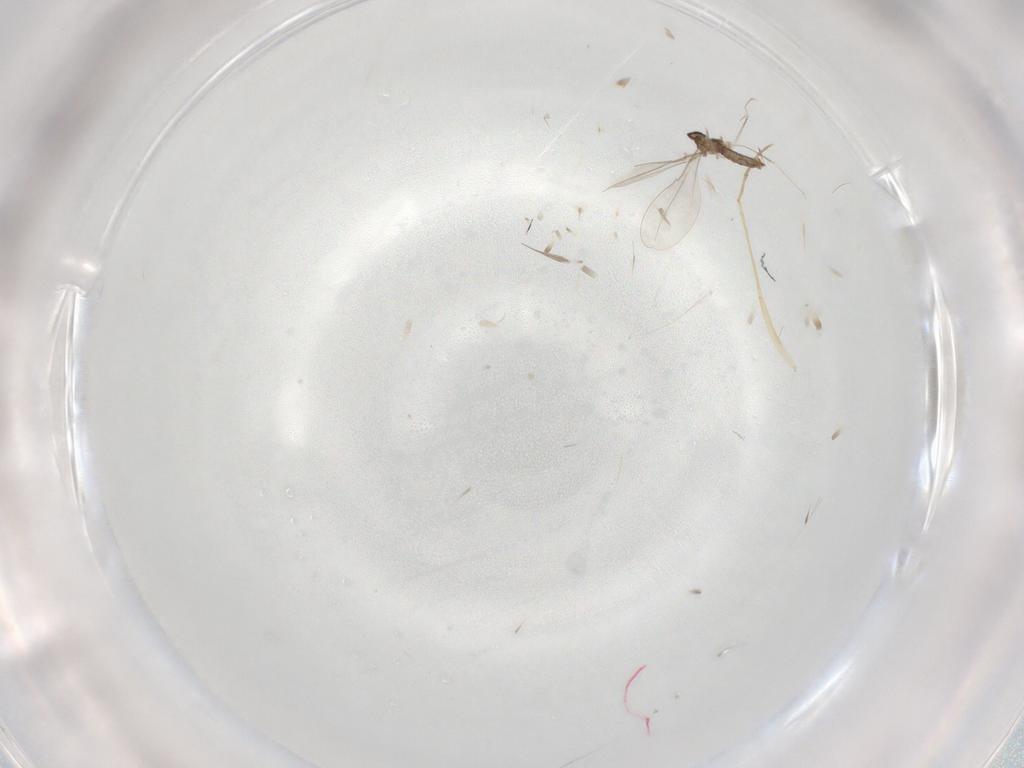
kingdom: Animalia
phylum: Arthropoda
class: Insecta
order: Diptera
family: Psychodidae
